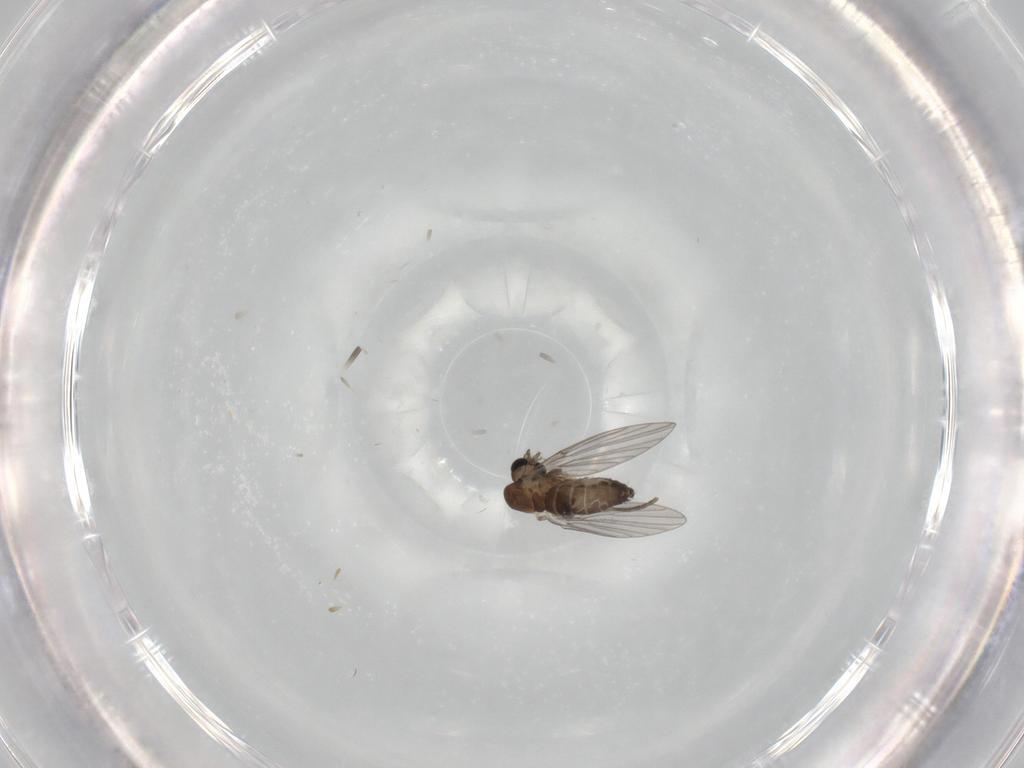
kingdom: Animalia
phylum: Arthropoda
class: Insecta
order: Diptera
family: Psychodidae
